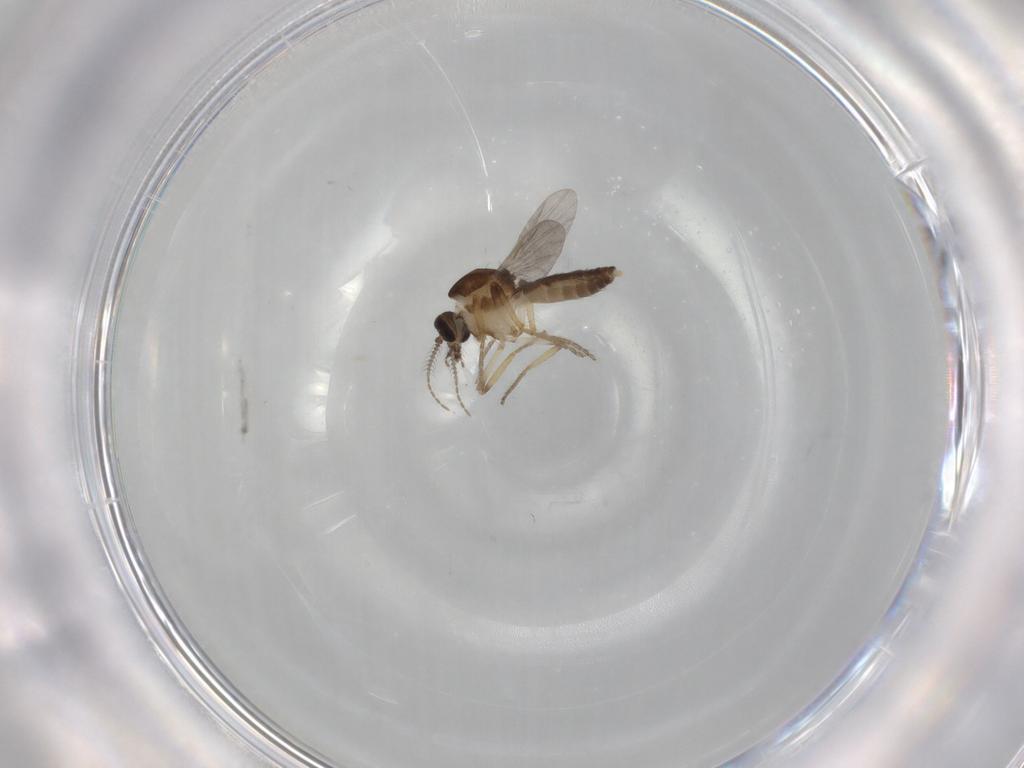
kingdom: Animalia
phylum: Arthropoda
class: Insecta
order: Diptera
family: Ceratopogonidae
